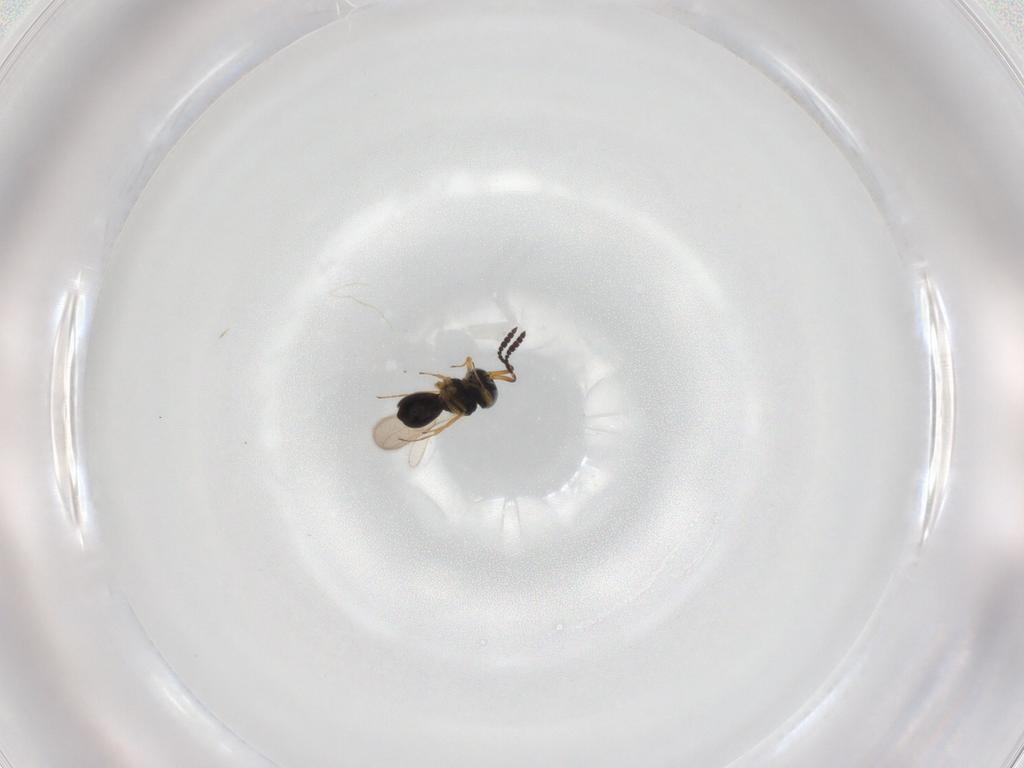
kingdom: Animalia
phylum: Arthropoda
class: Insecta
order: Hymenoptera
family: Scelionidae
